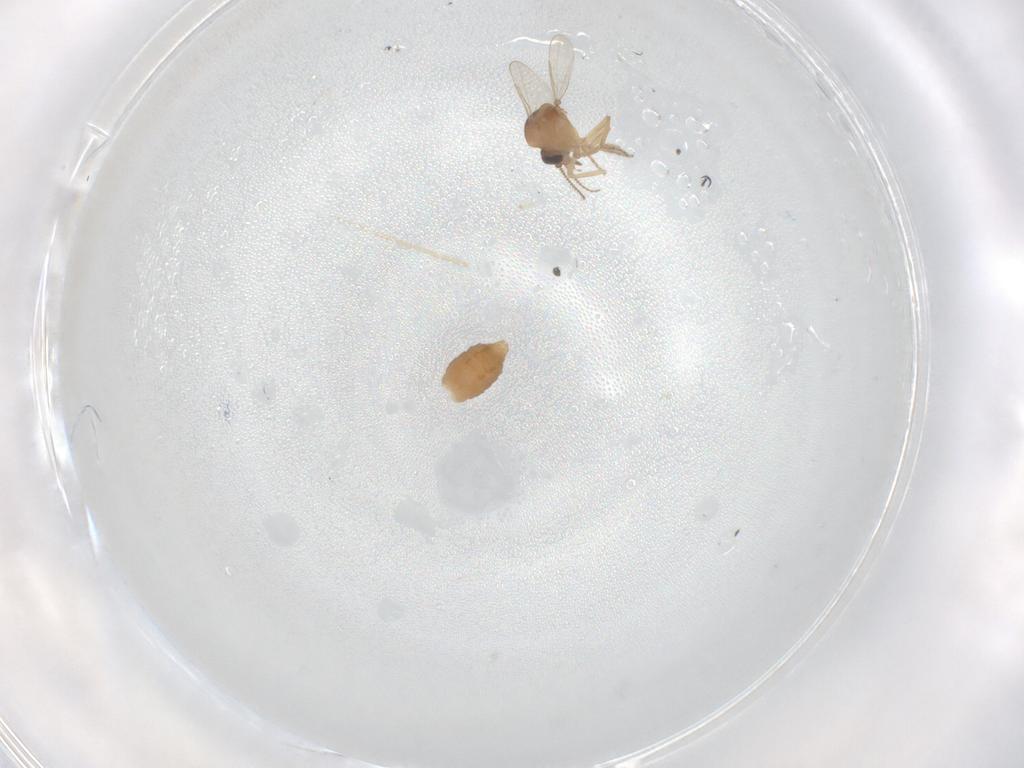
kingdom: Animalia
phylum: Arthropoda
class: Insecta
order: Diptera
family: Ceratopogonidae
